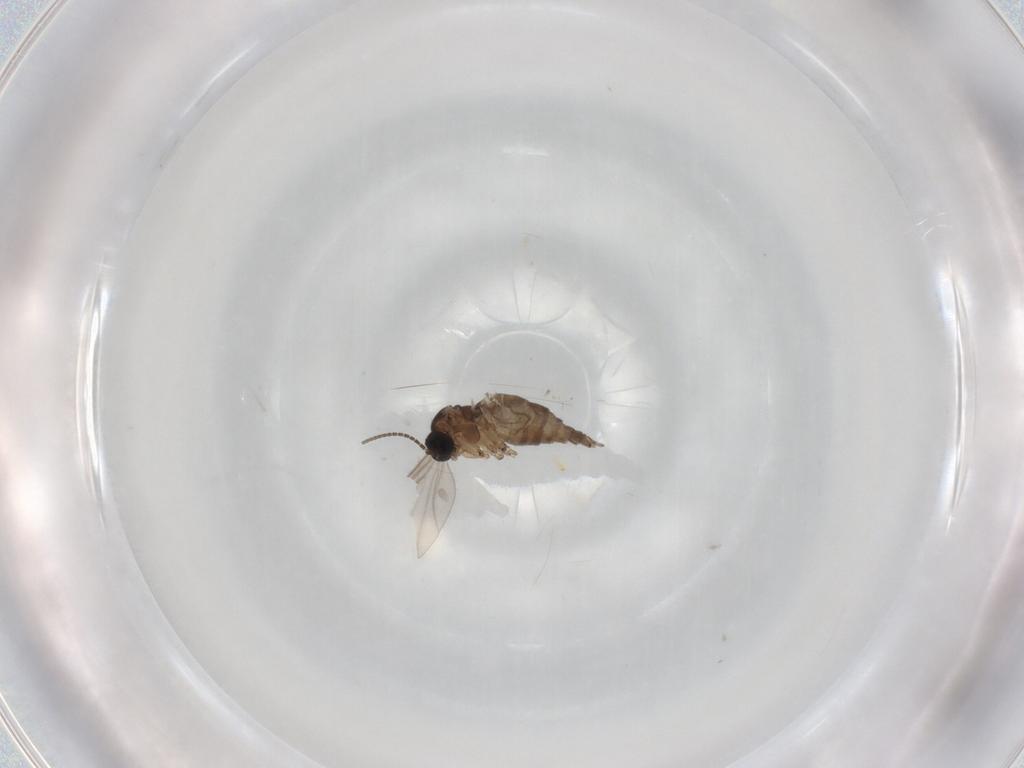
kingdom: Animalia
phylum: Arthropoda
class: Insecta
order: Diptera
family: Sciaridae
